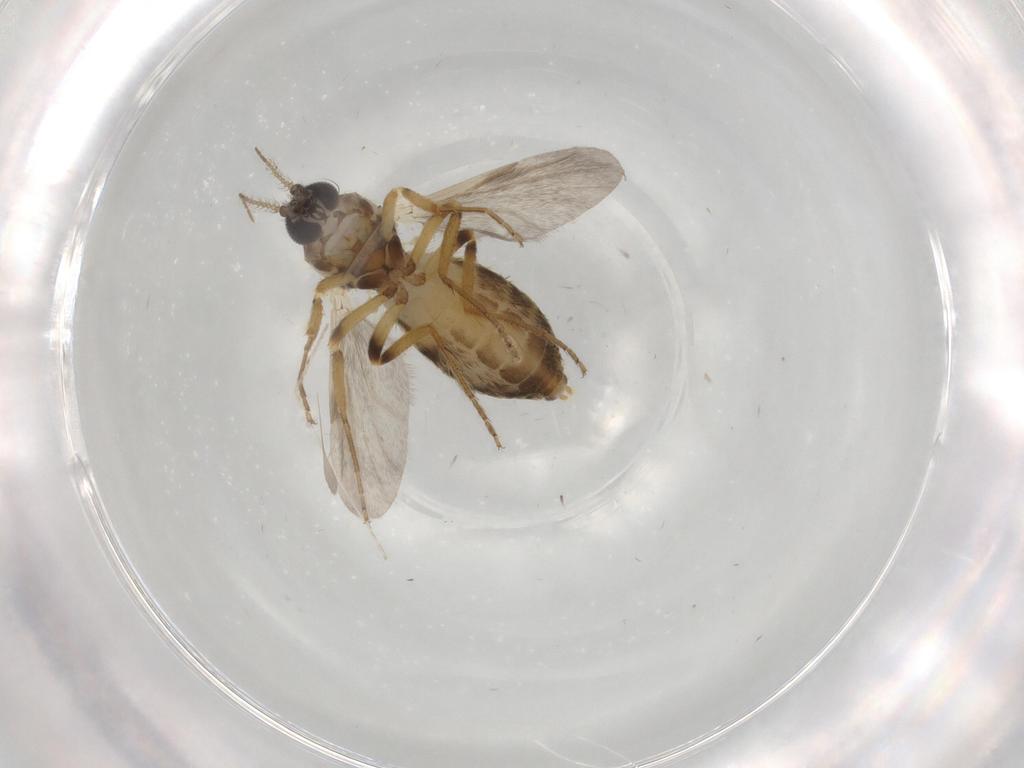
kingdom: Animalia
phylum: Arthropoda
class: Insecta
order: Diptera
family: Ceratopogonidae
